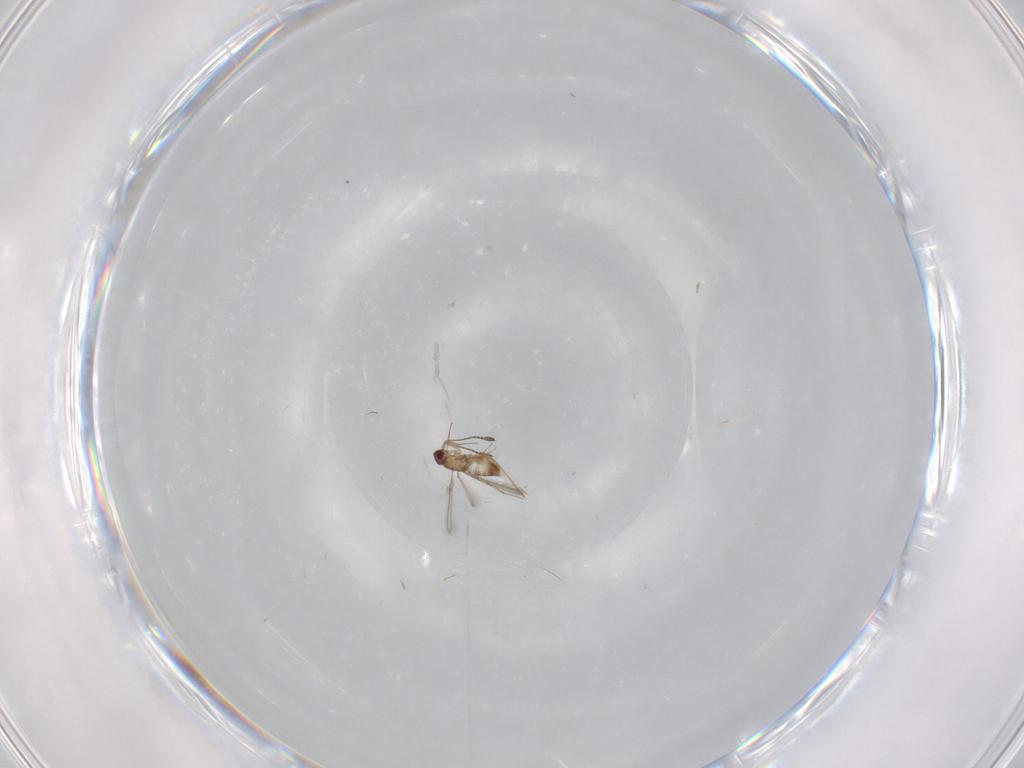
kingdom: Animalia
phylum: Arthropoda
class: Insecta
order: Hymenoptera
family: Mymaridae
